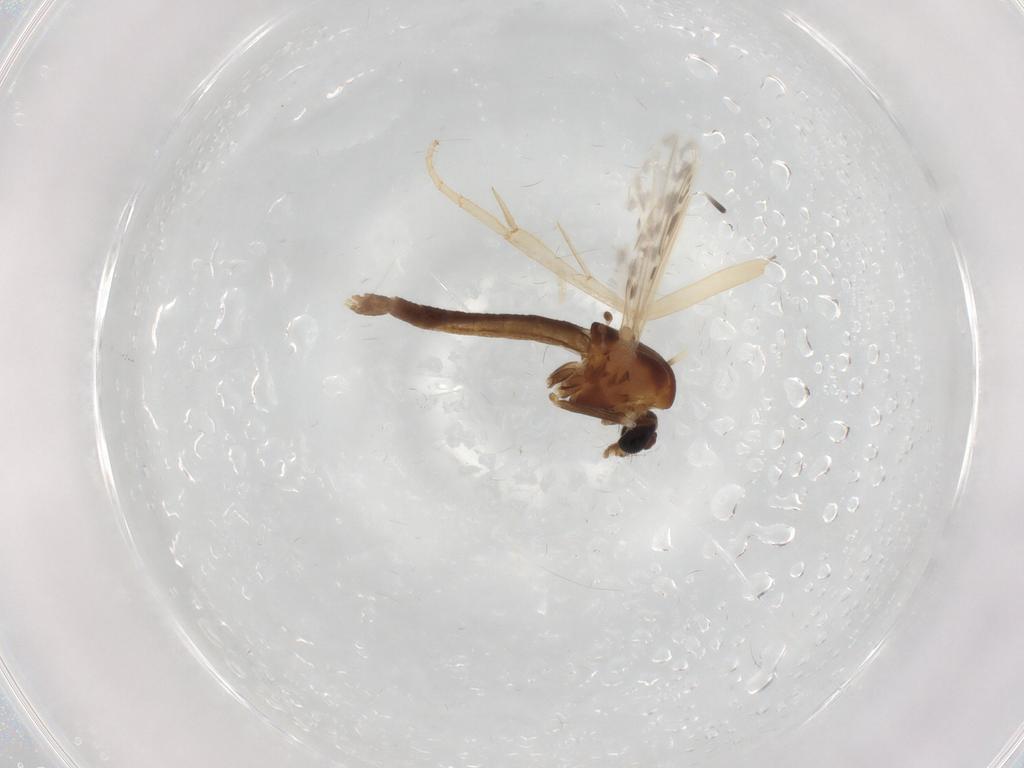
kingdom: Animalia
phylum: Arthropoda
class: Insecta
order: Diptera
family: Chironomidae
